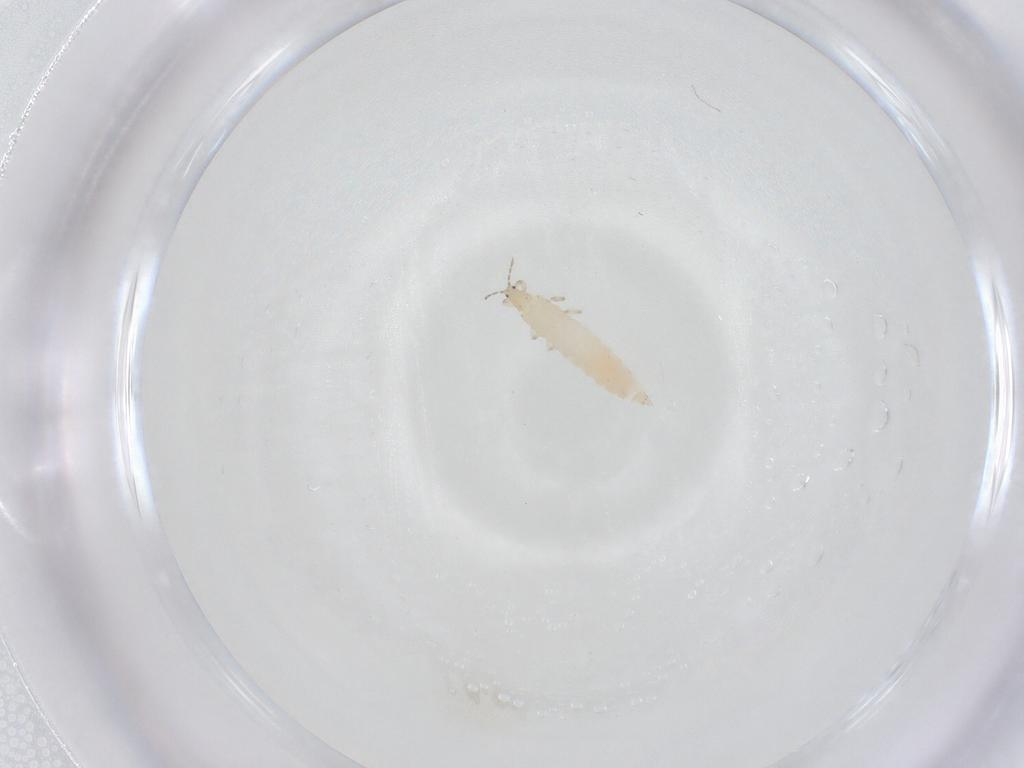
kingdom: Animalia
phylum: Arthropoda
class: Insecta
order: Thysanoptera
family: Aeolothripidae
